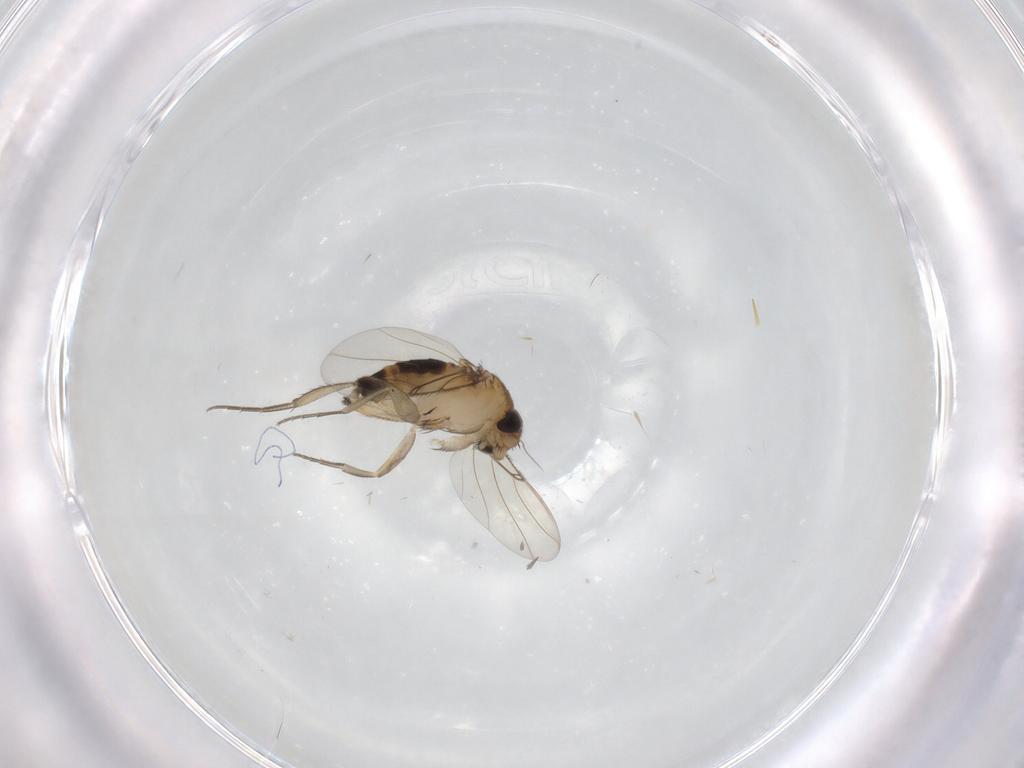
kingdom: Animalia
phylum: Arthropoda
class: Insecta
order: Diptera
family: Phoridae
